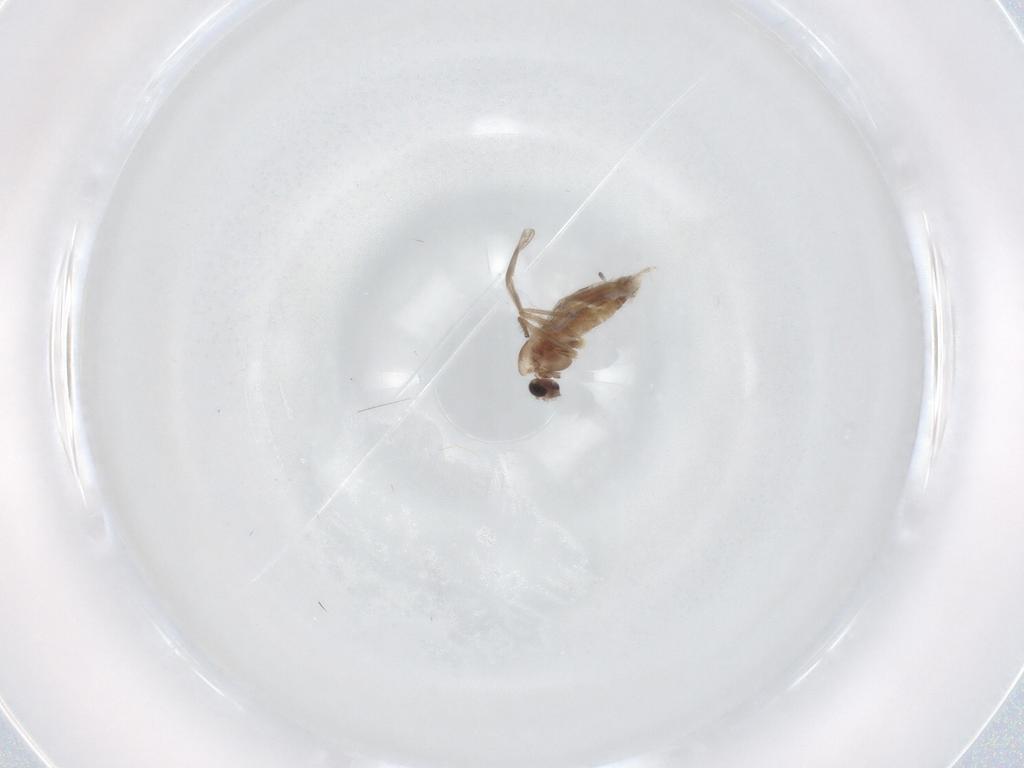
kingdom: Animalia
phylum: Arthropoda
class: Insecta
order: Diptera
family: Chironomidae
